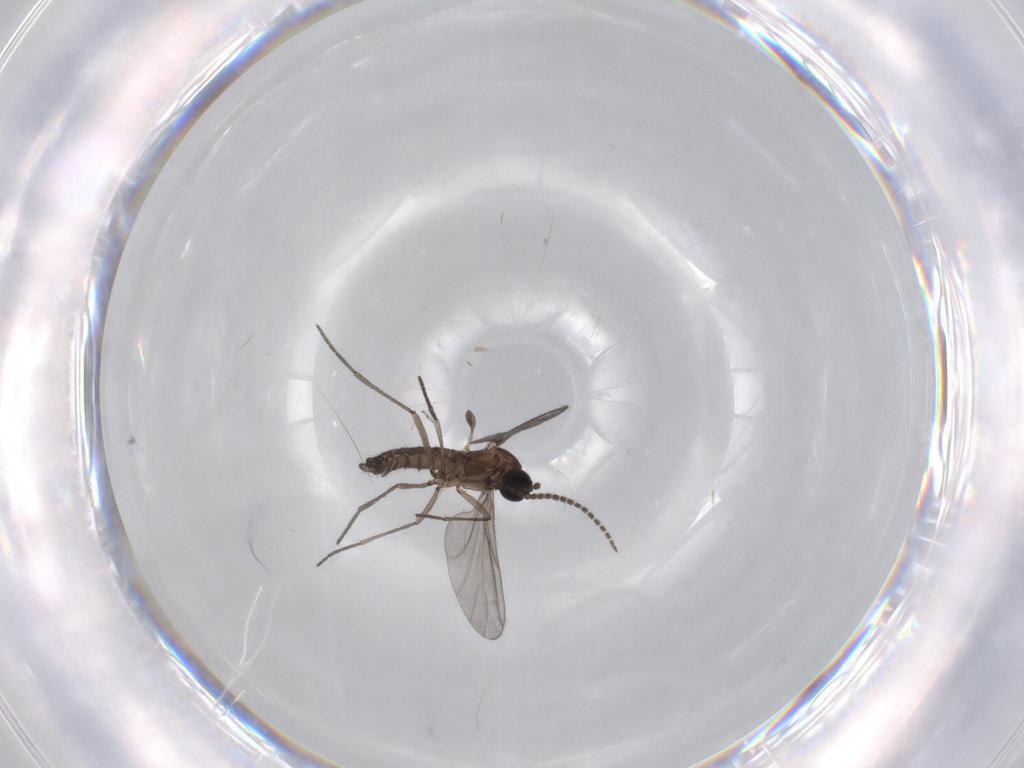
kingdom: Animalia
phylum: Arthropoda
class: Insecta
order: Diptera
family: Sciaridae
